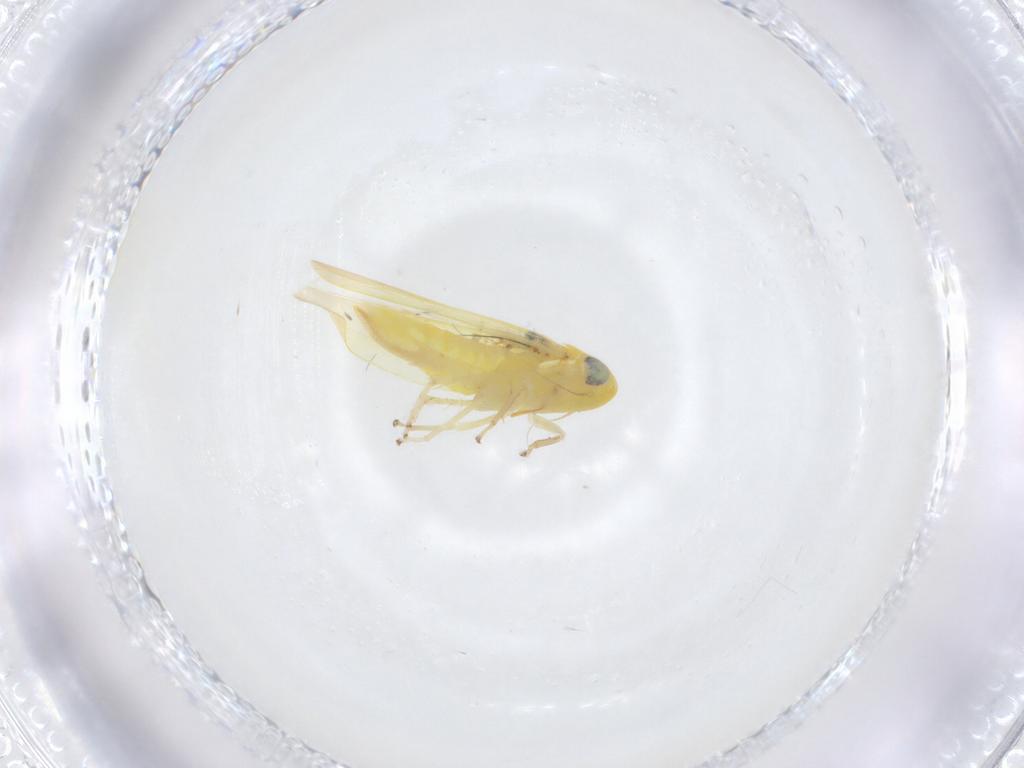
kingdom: Animalia
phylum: Arthropoda
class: Insecta
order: Hemiptera
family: Cicadellidae
